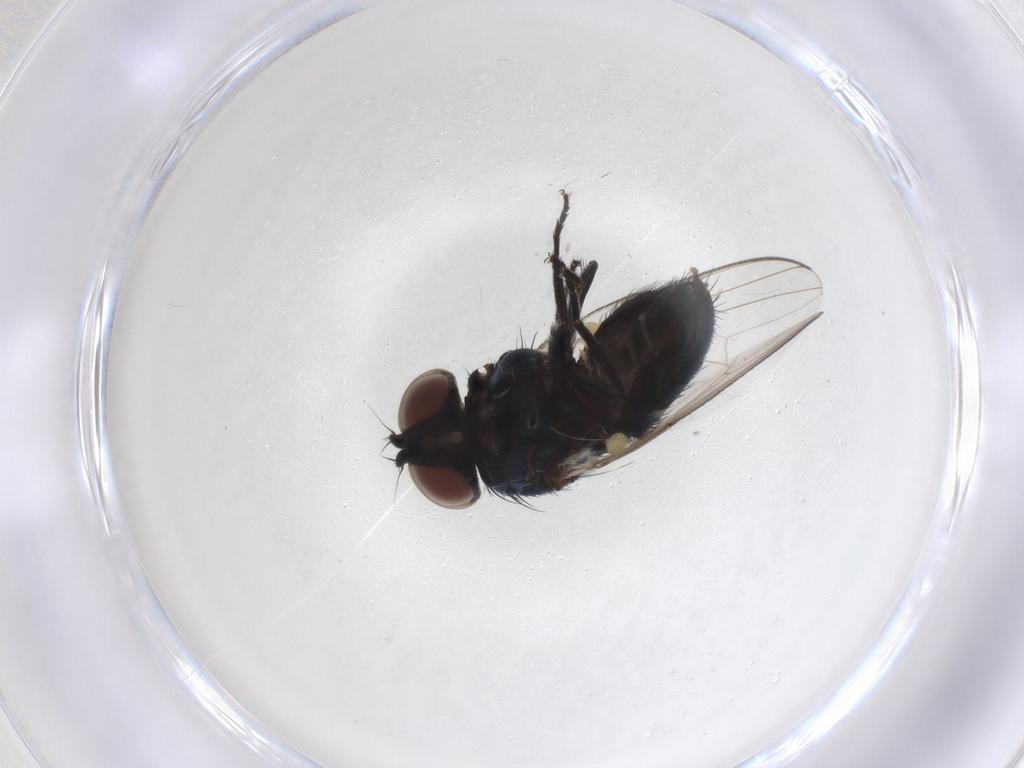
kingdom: Animalia
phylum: Arthropoda
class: Insecta
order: Diptera
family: Milichiidae
